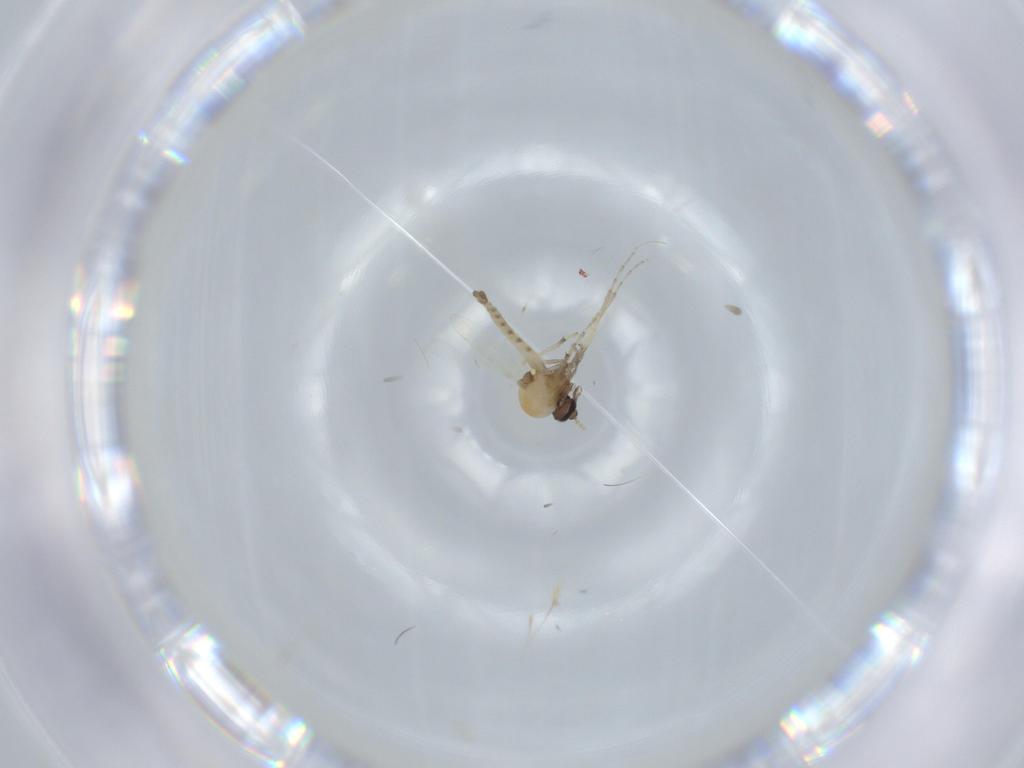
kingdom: Animalia
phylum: Arthropoda
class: Insecta
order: Diptera
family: Ceratopogonidae
